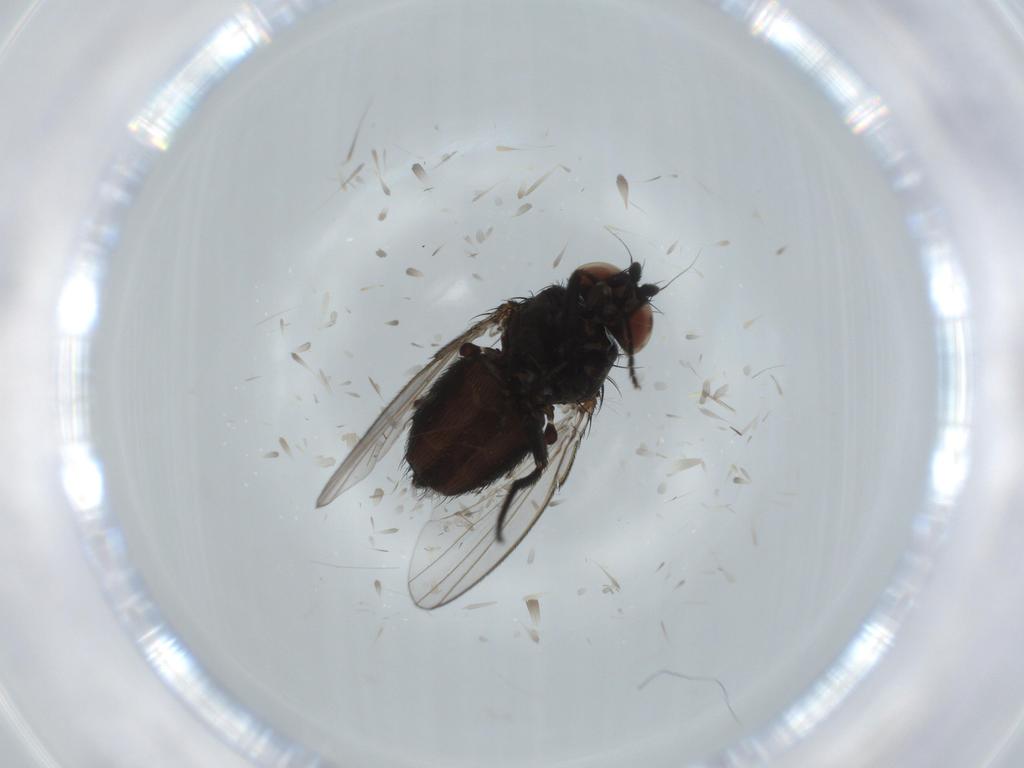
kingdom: Animalia
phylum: Arthropoda
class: Insecta
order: Diptera
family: Milichiidae
